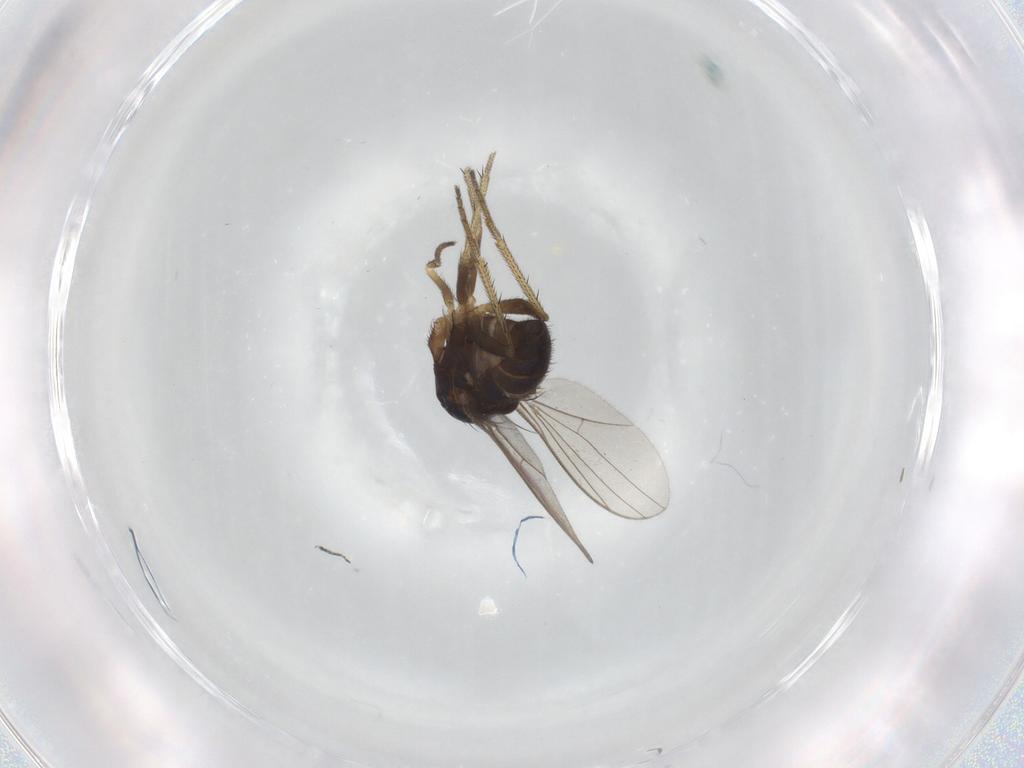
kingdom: Animalia
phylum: Arthropoda
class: Insecta
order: Diptera
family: Dolichopodidae
